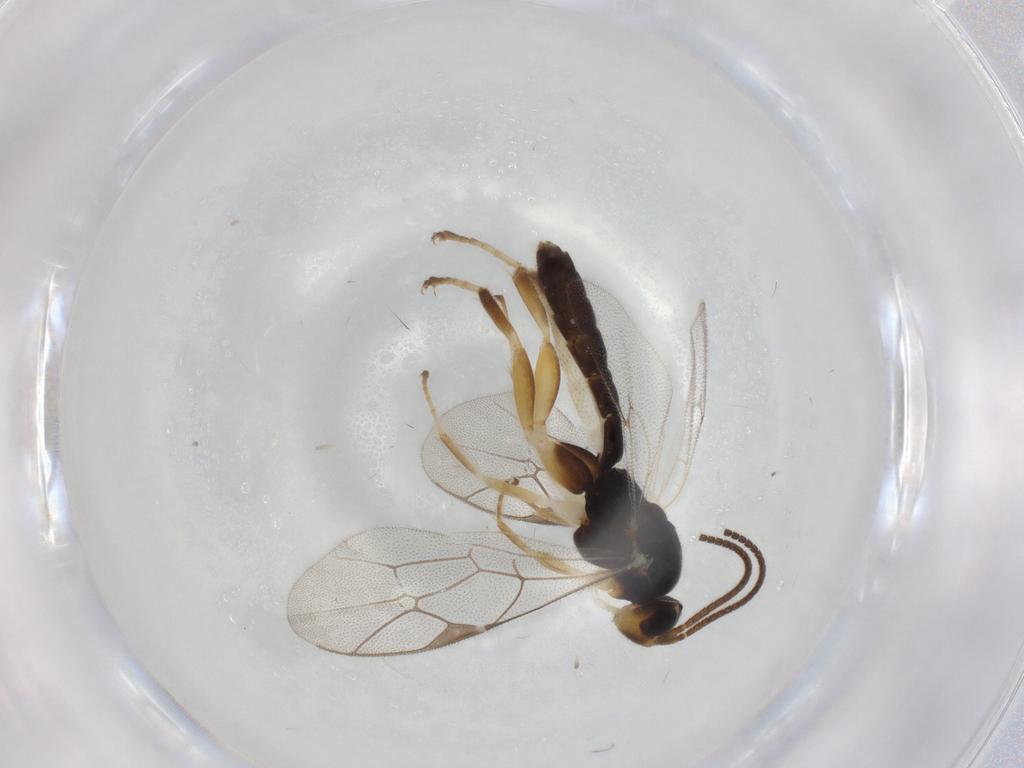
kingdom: Animalia
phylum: Arthropoda
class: Insecta
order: Hymenoptera
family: Ichneumonidae
